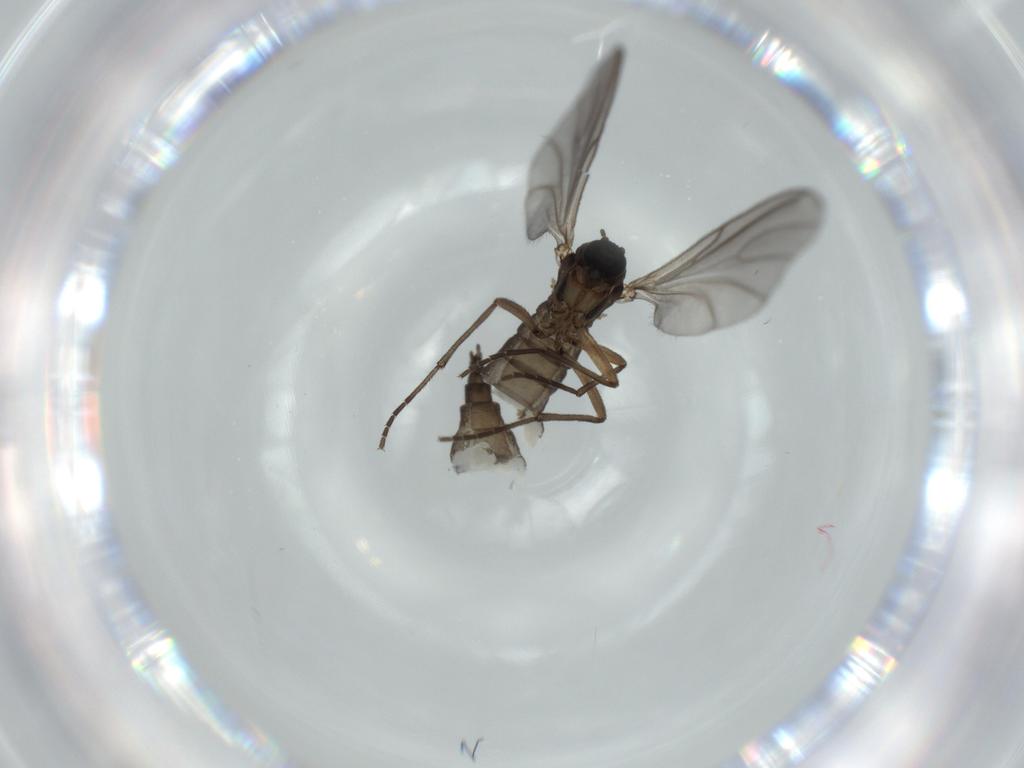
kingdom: Animalia
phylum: Arthropoda
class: Insecta
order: Diptera
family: Sciaridae
